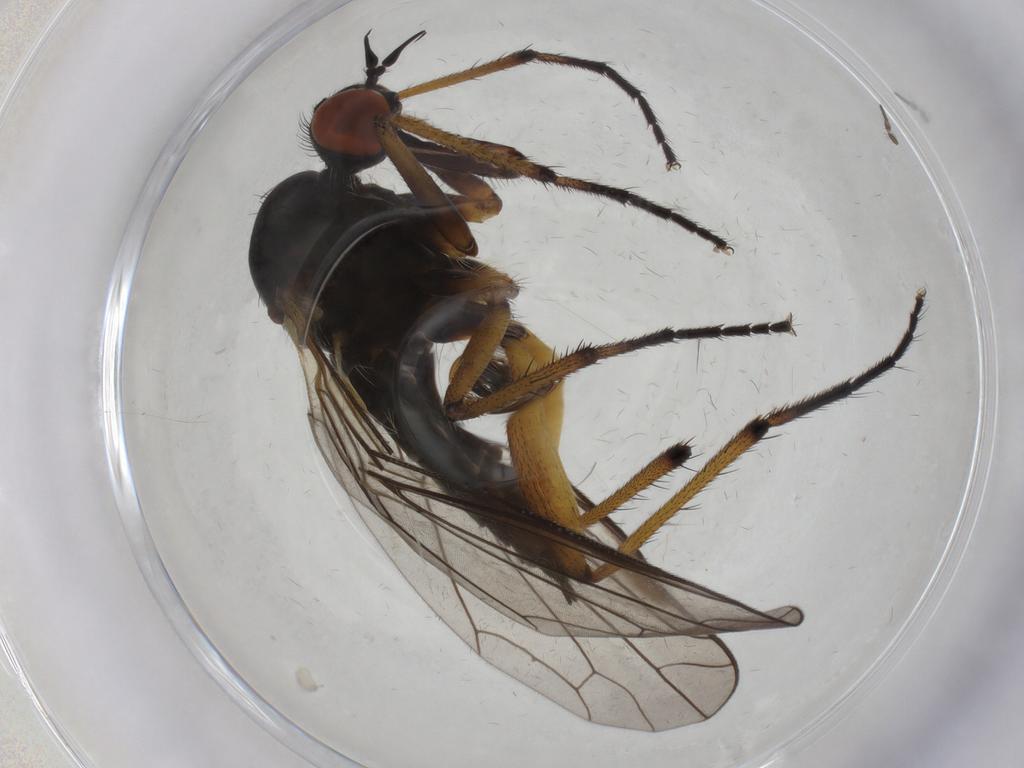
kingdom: Animalia
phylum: Arthropoda
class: Insecta
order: Diptera
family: Empididae
